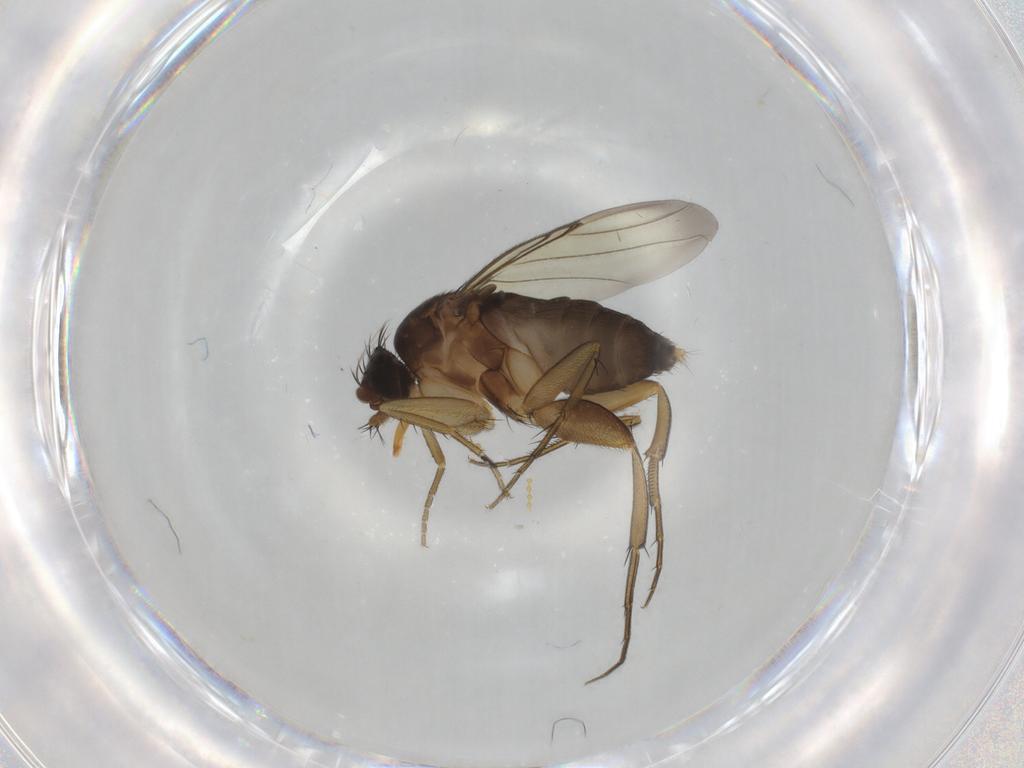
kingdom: Animalia
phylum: Arthropoda
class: Insecta
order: Diptera
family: Phoridae
